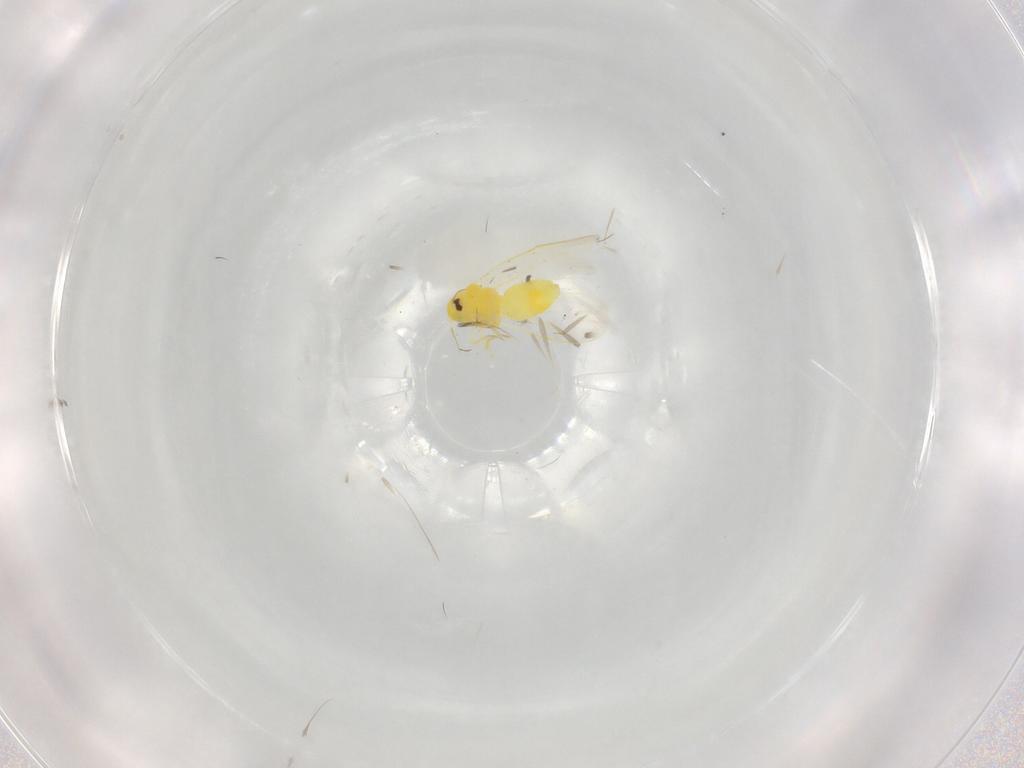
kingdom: Animalia
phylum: Arthropoda
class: Insecta
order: Hemiptera
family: Aleyrodidae
